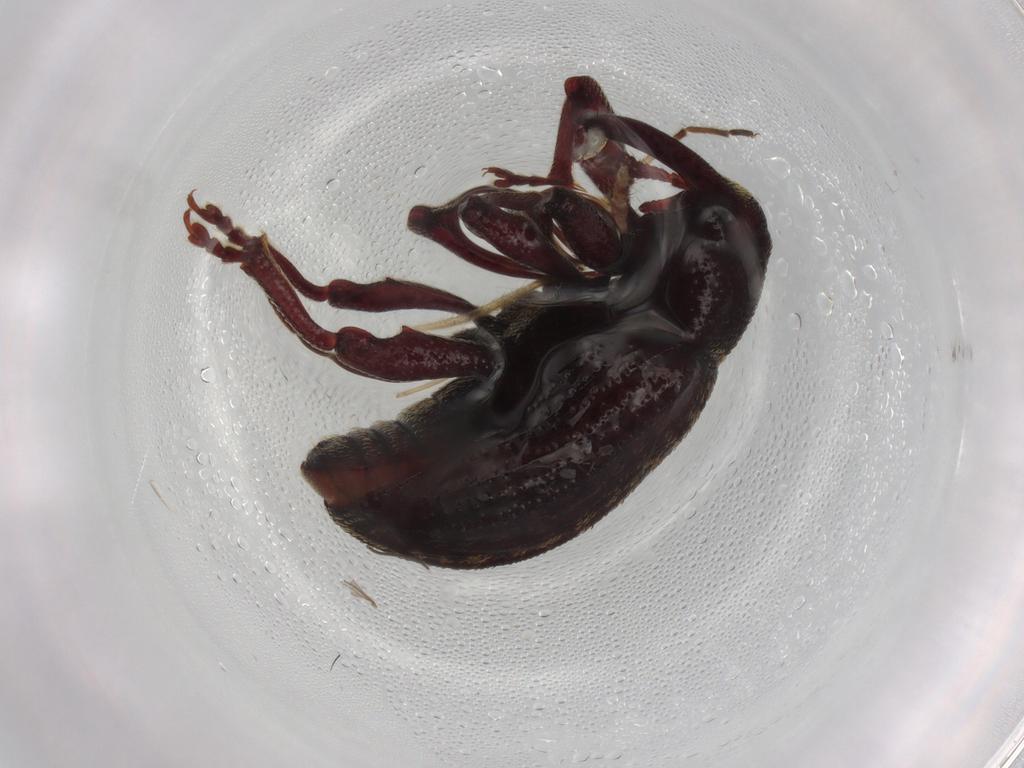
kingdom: Animalia
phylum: Arthropoda
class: Insecta
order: Coleoptera
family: Curculionidae
